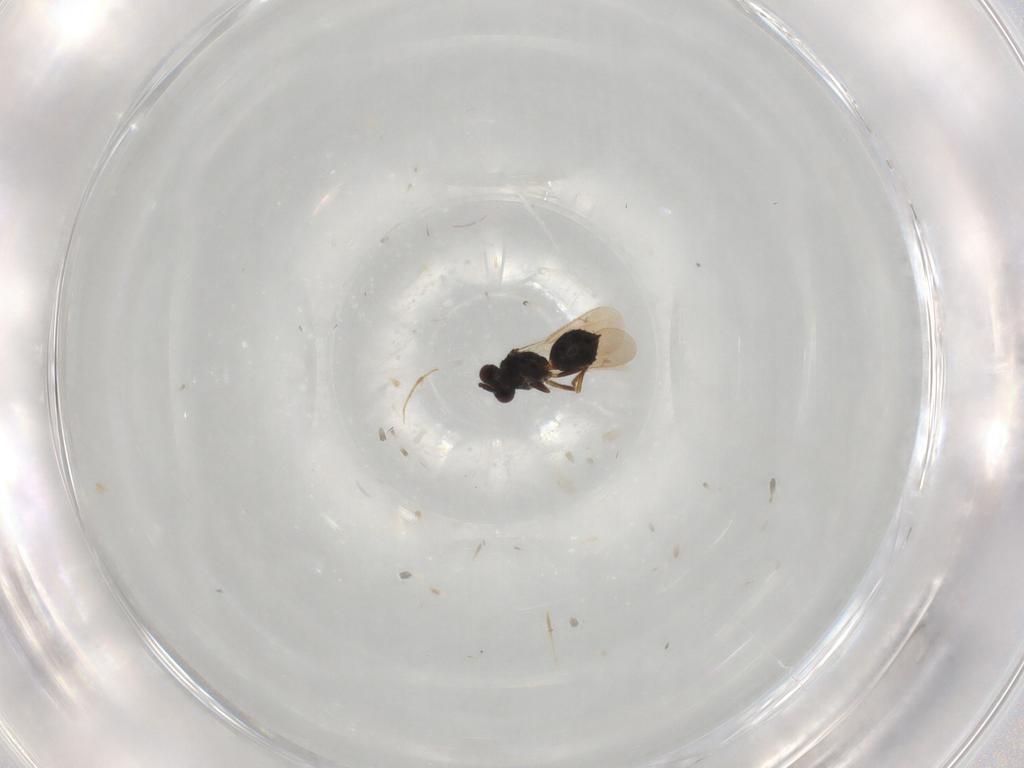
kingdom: Animalia
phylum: Arthropoda
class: Insecta
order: Hymenoptera
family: Tetracampidae
